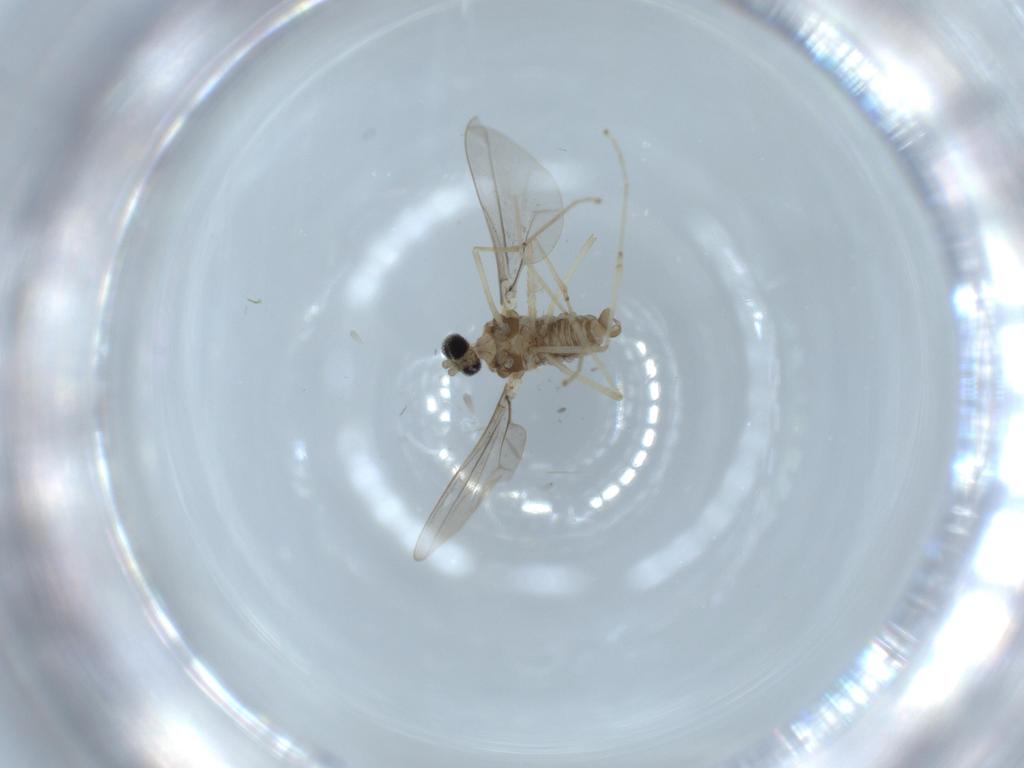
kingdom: Animalia
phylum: Arthropoda
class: Insecta
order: Diptera
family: Cecidomyiidae
